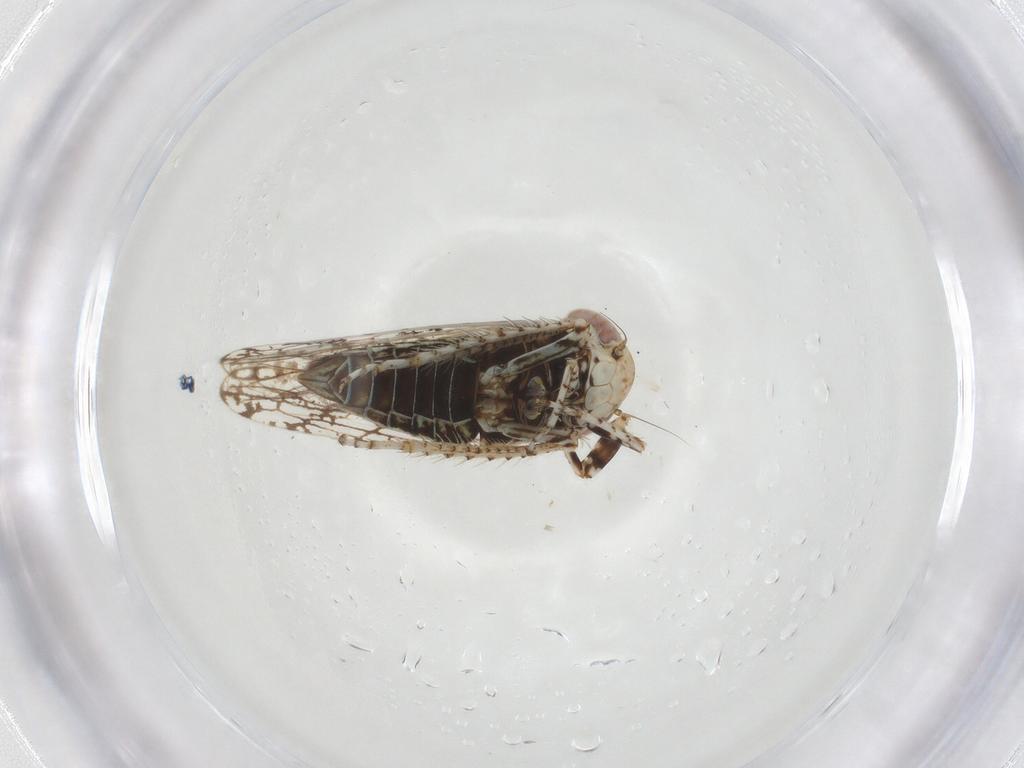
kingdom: Animalia
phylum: Arthropoda
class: Insecta
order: Hemiptera
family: Cicadellidae
